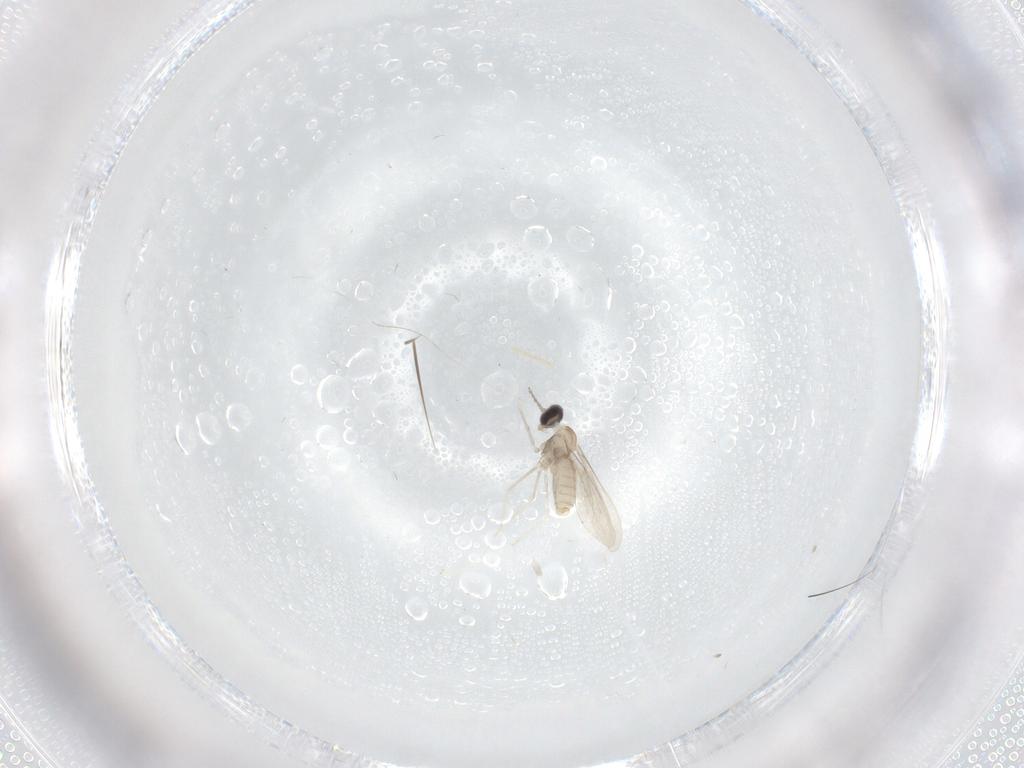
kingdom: Animalia
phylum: Arthropoda
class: Insecta
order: Diptera
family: Cecidomyiidae
